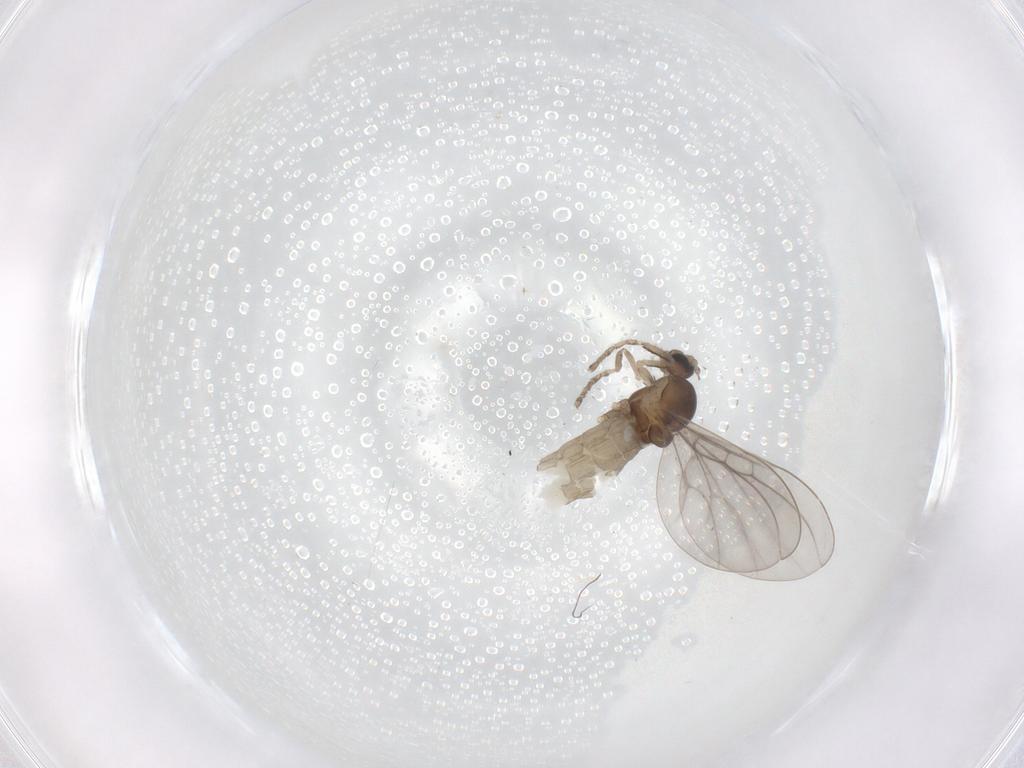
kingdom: Animalia
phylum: Arthropoda
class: Insecta
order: Diptera
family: Cecidomyiidae
